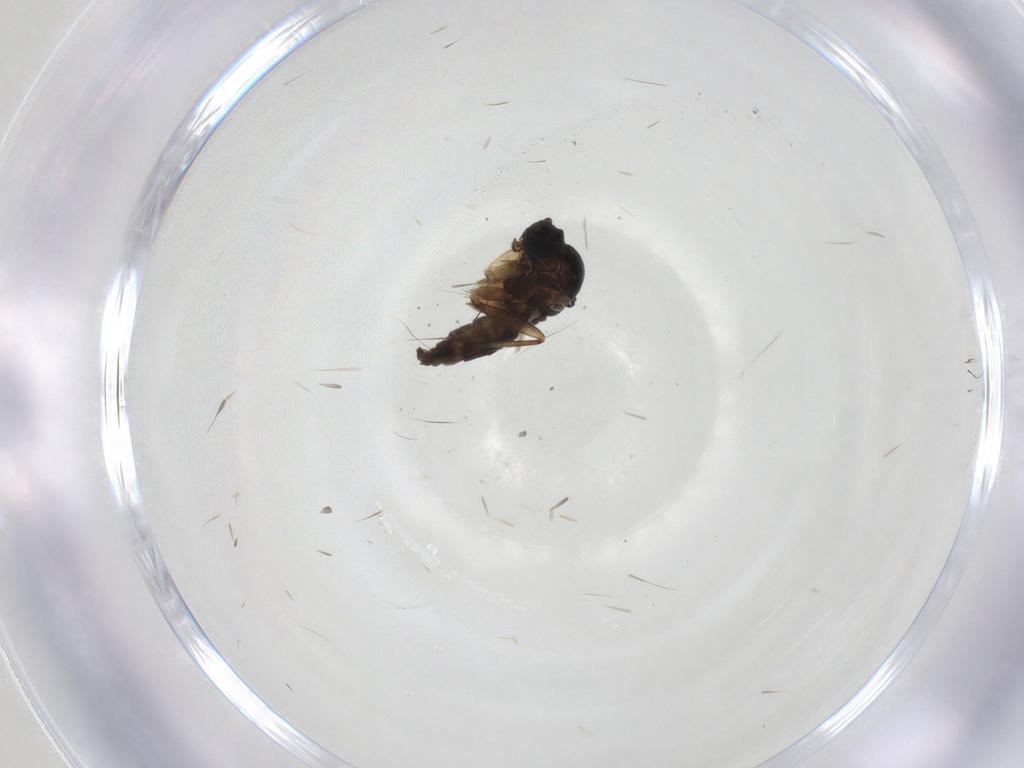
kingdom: Animalia
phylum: Arthropoda
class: Insecta
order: Diptera
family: Sciaridae
